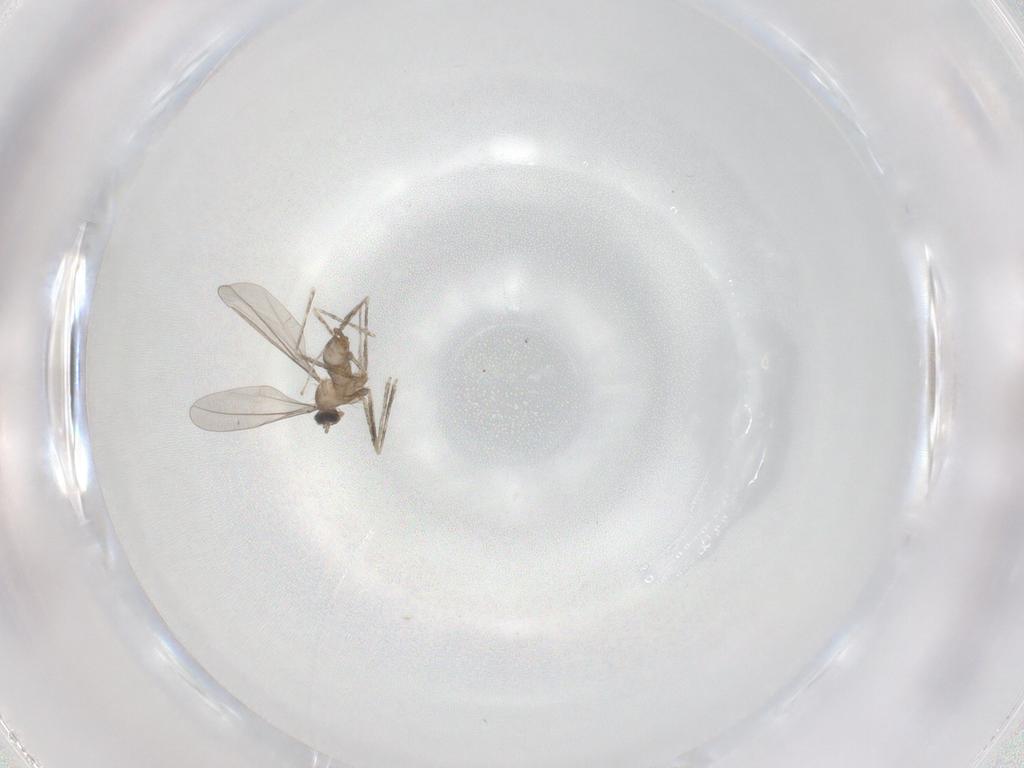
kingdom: Animalia
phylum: Arthropoda
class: Insecta
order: Diptera
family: Cecidomyiidae
